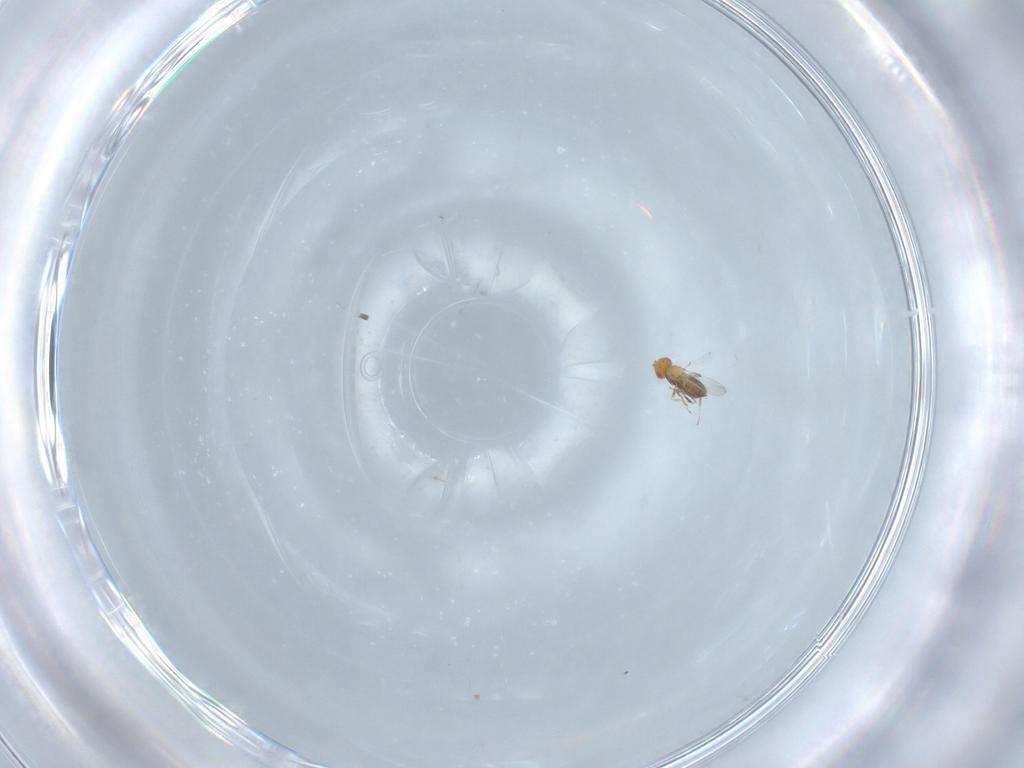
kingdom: Animalia
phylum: Arthropoda
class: Insecta
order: Hymenoptera
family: Trichogrammatidae
